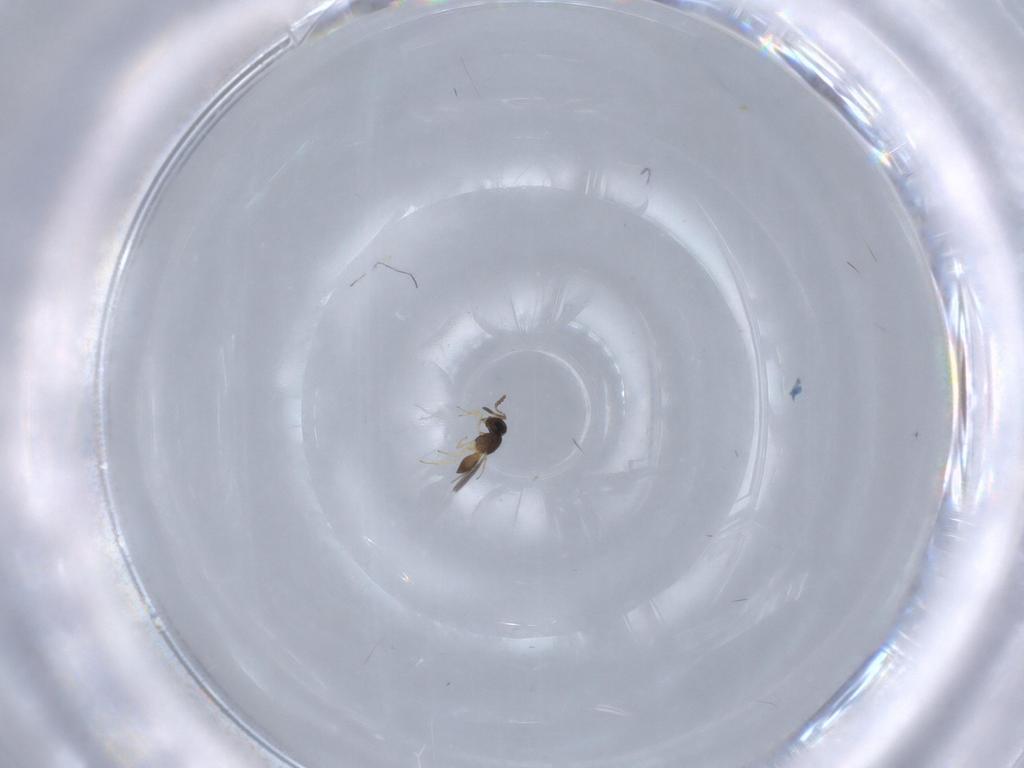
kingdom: Animalia
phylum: Arthropoda
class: Insecta
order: Hymenoptera
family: Scelionidae
